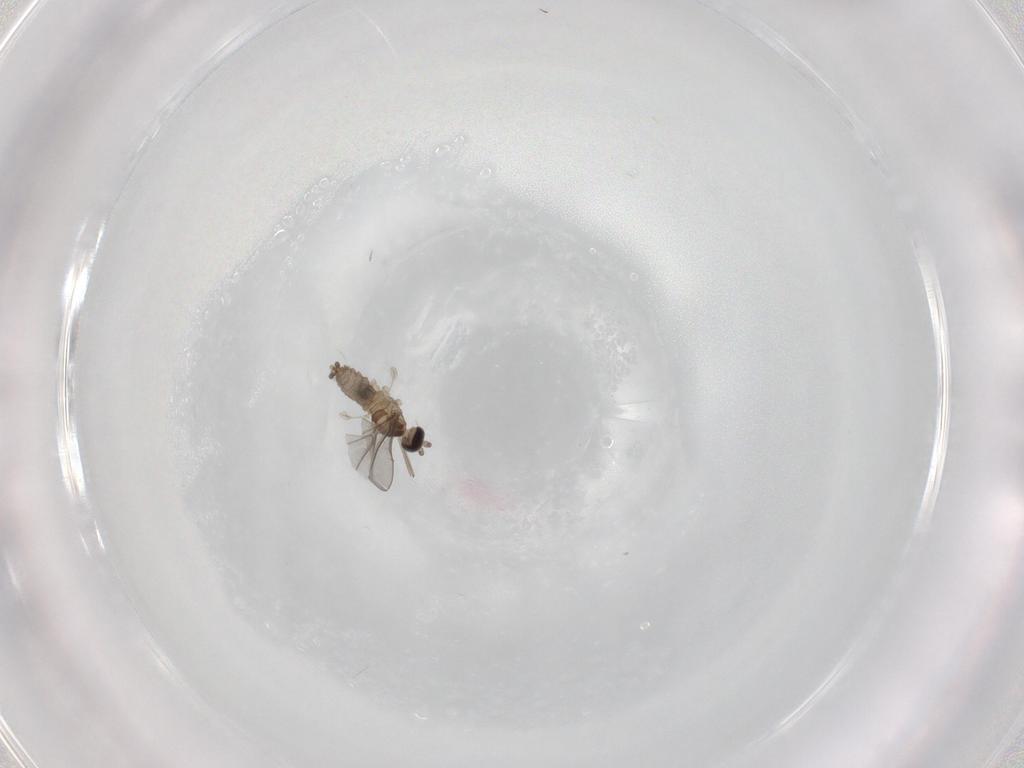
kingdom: Animalia
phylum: Arthropoda
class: Insecta
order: Diptera
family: Cecidomyiidae
